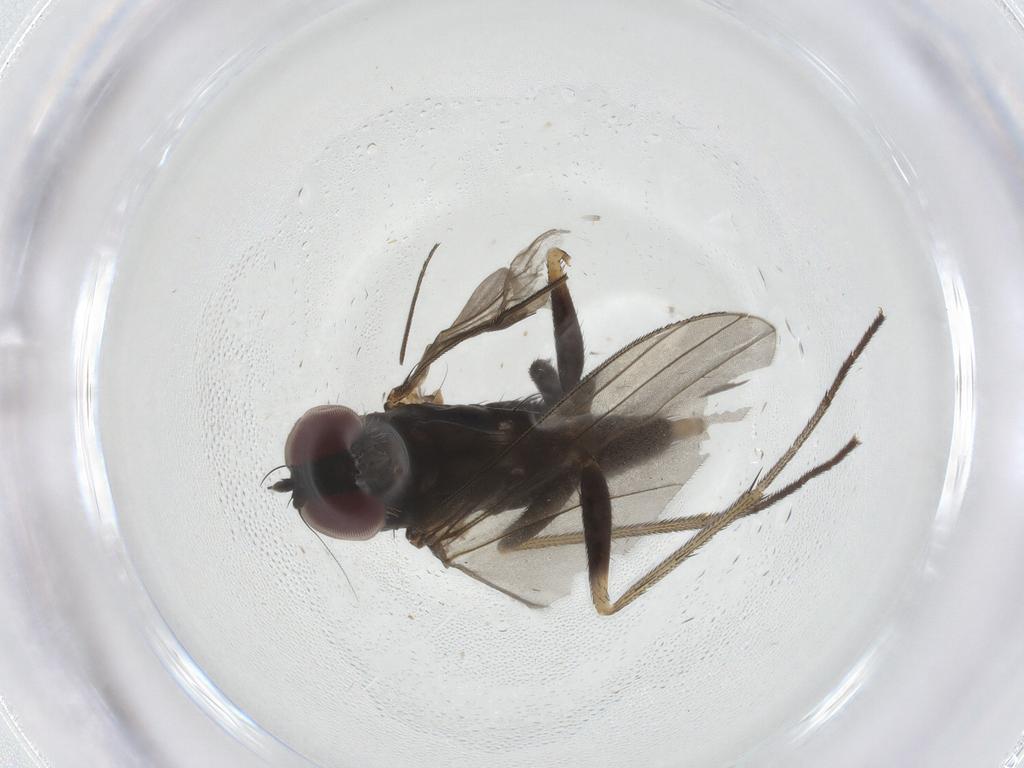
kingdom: Animalia
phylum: Arthropoda
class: Insecta
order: Diptera
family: Dolichopodidae
